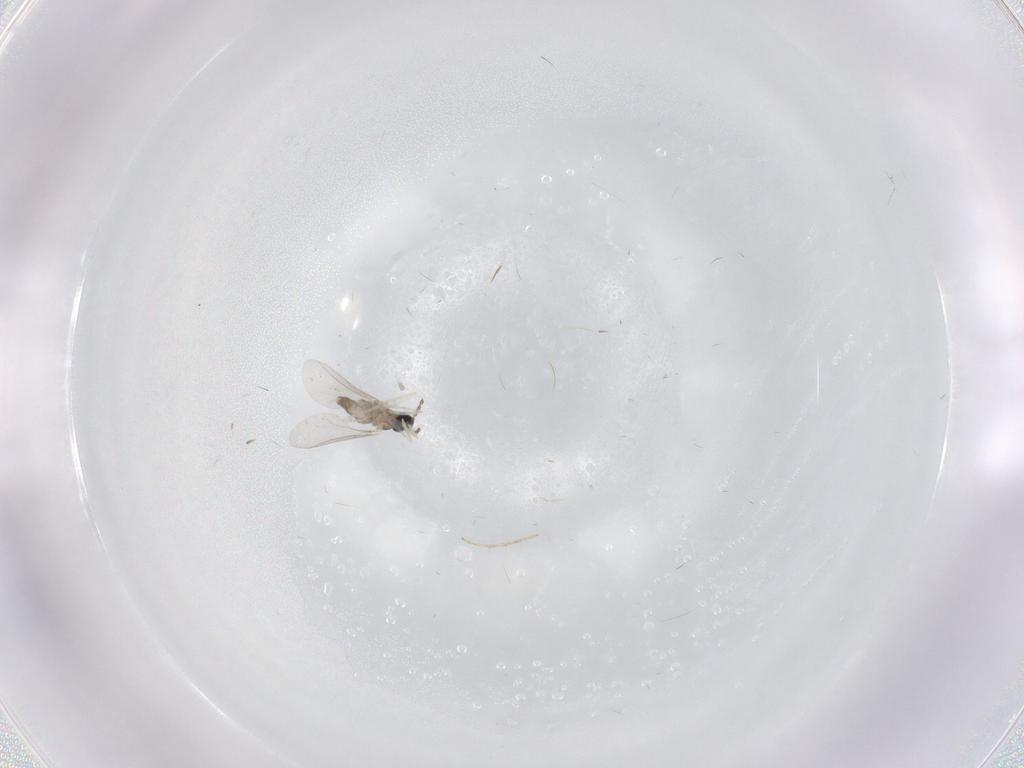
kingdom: Animalia
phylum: Arthropoda
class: Insecta
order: Diptera
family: Cecidomyiidae
